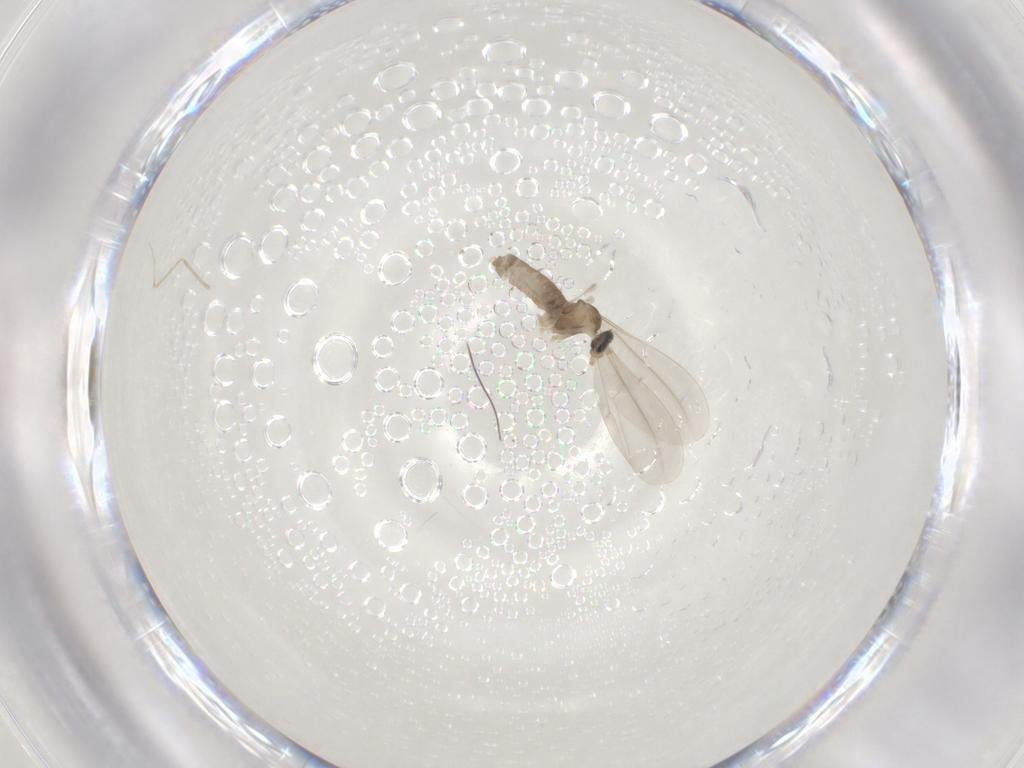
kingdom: Animalia
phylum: Arthropoda
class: Insecta
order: Diptera
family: Cecidomyiidae
